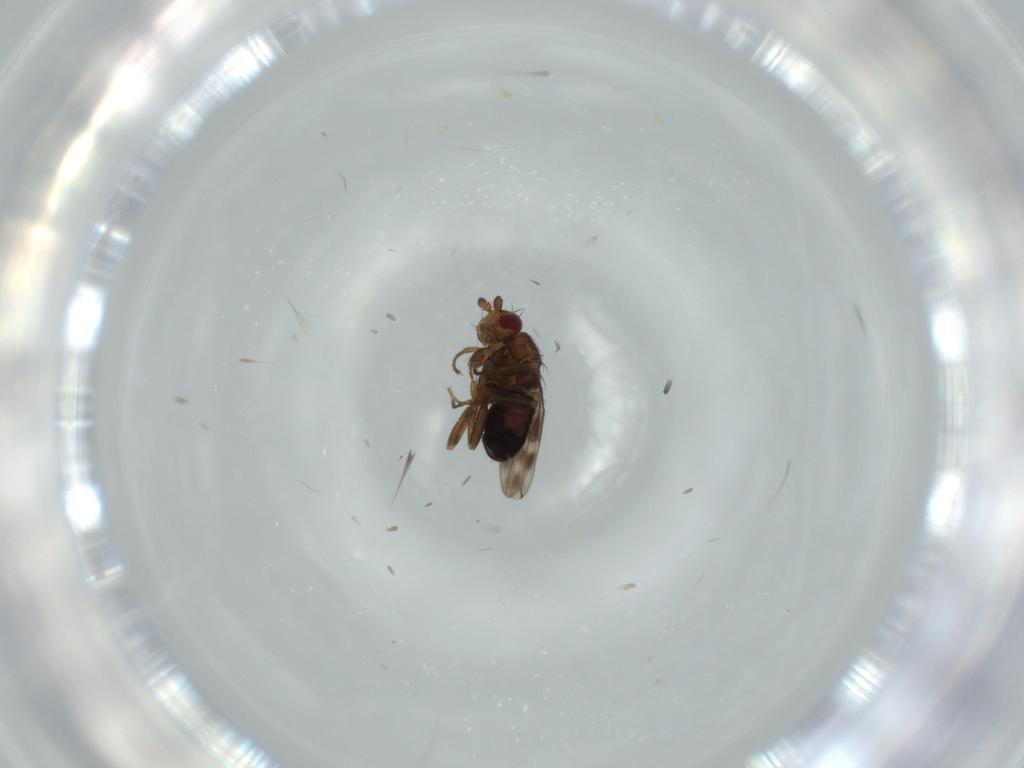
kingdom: Animalia
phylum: Arthropoda
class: Insecta
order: Diptera
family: Sphaeroceridae
